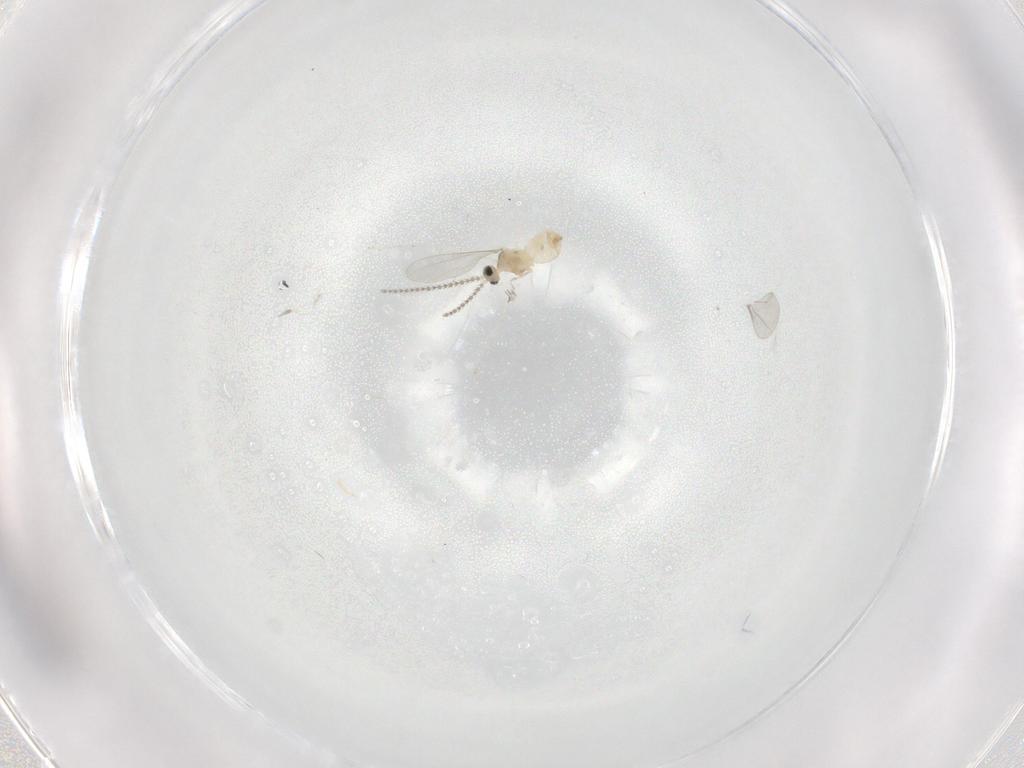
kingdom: Animalia
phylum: Arthropoda
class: Insecta
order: Diptera
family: Cecidomyiidae
